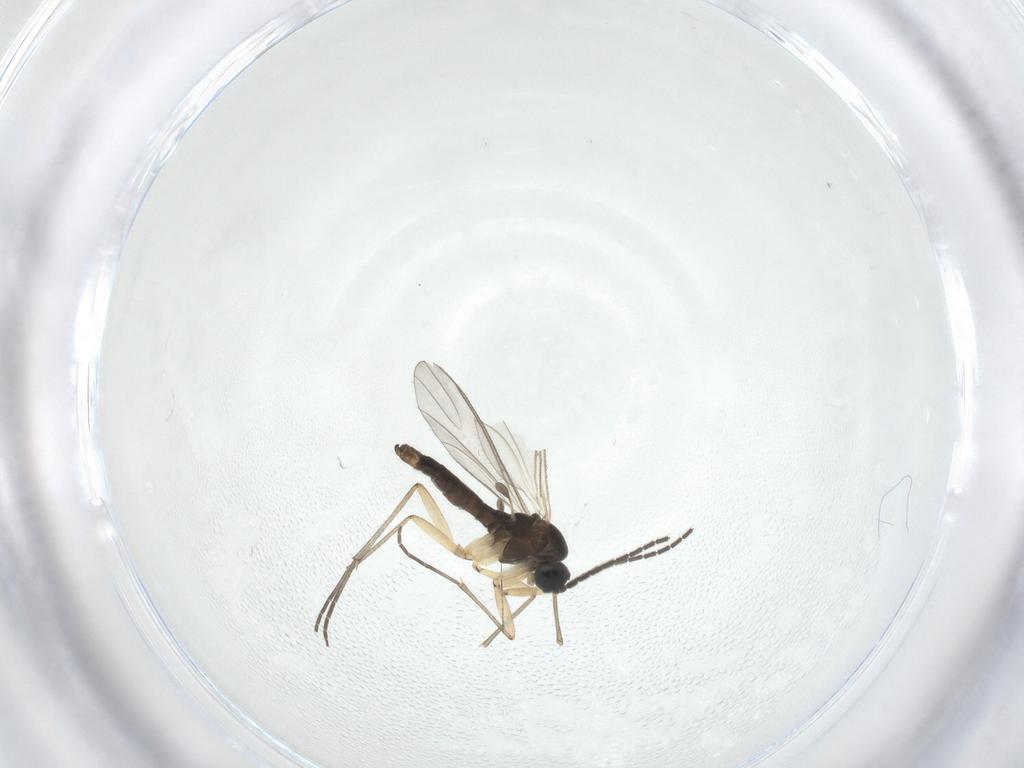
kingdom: Animalia
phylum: Arthropoda
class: Insecta
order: Diptera
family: Sciaridae
